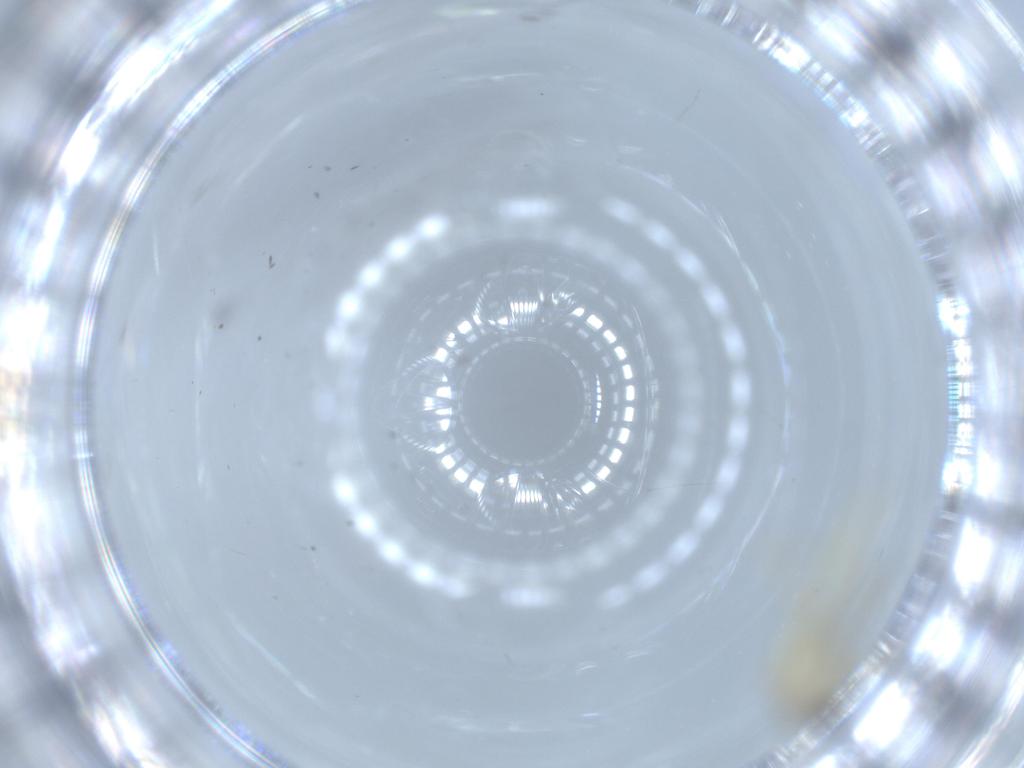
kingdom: Animalia
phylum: Arthropoda
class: Insecta
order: Diptera
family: Chironomidae
